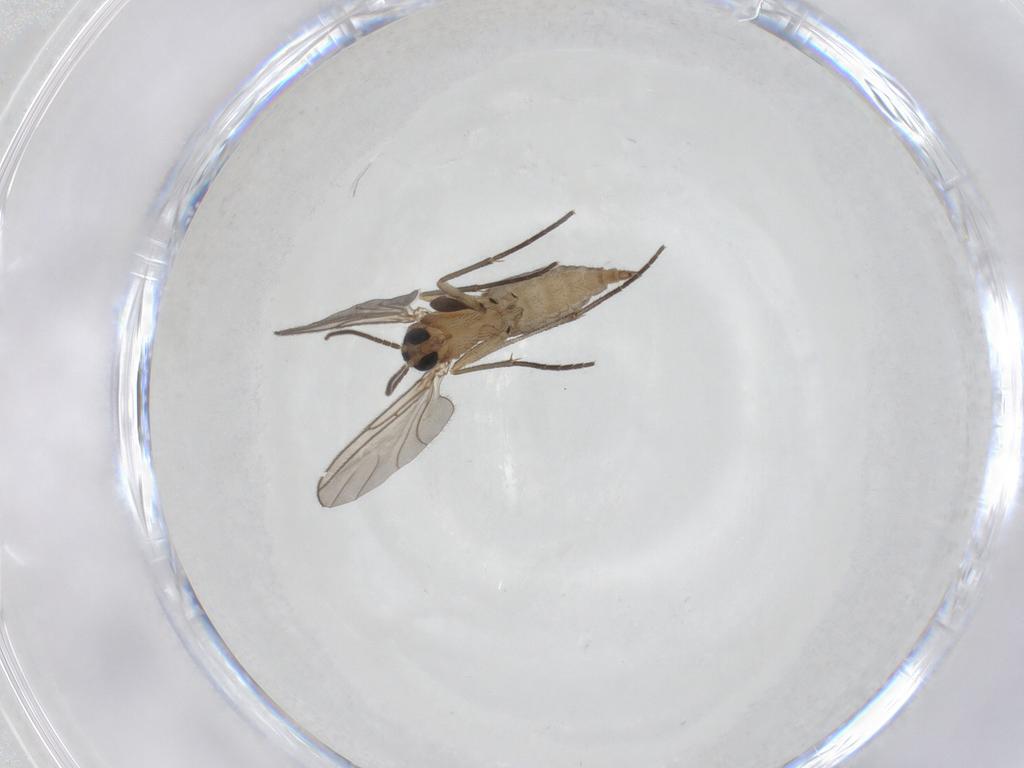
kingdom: Animalia
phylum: Arthropoda
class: Insecta
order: Diptera
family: Sciaridae
